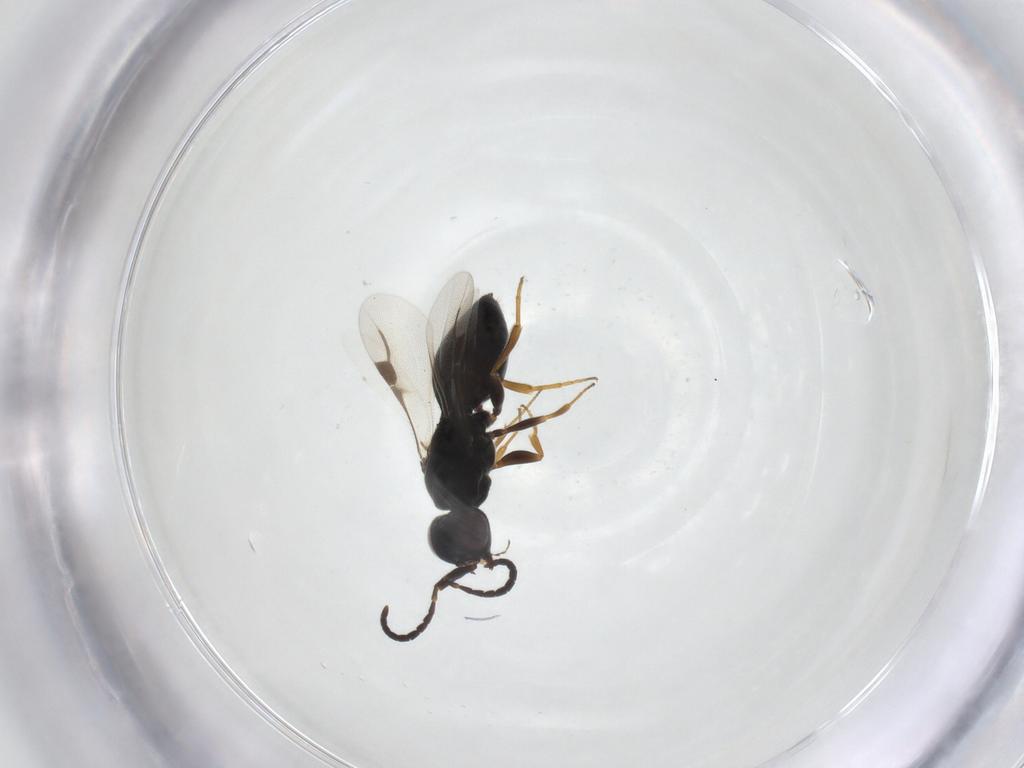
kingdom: Animalia
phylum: Arthropoda
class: Insecta
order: Hymenoptera
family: Megaspilidae
